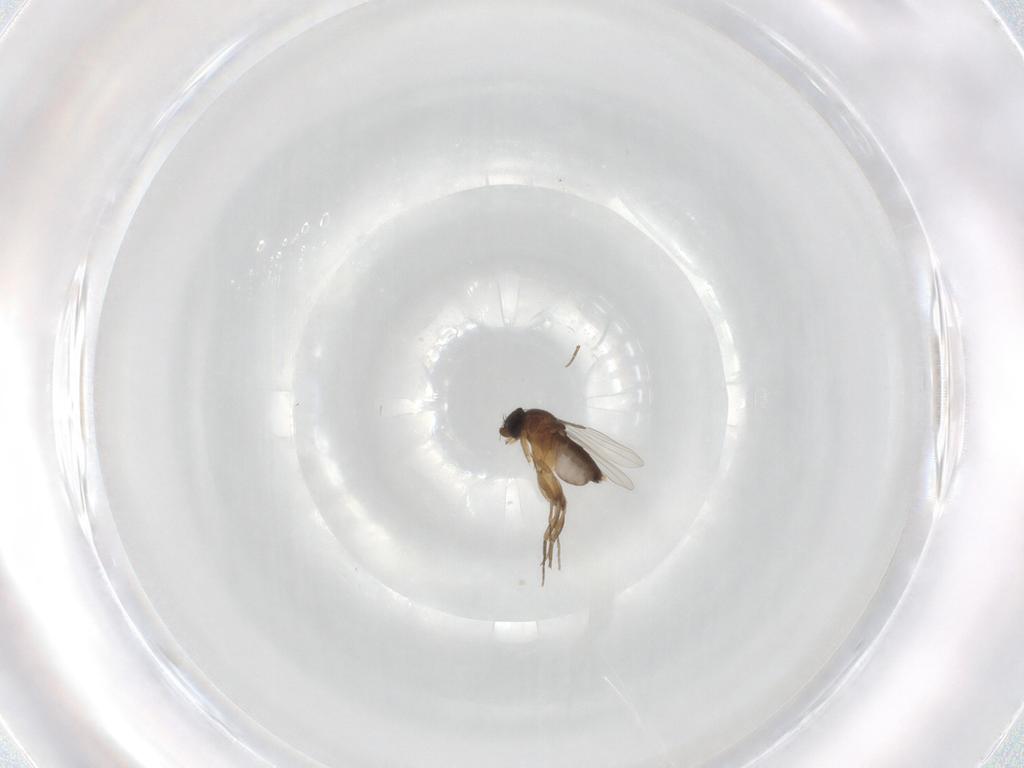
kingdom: Animalia
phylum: Arthropoda
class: Insecta
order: Diptera
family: Phoridae
